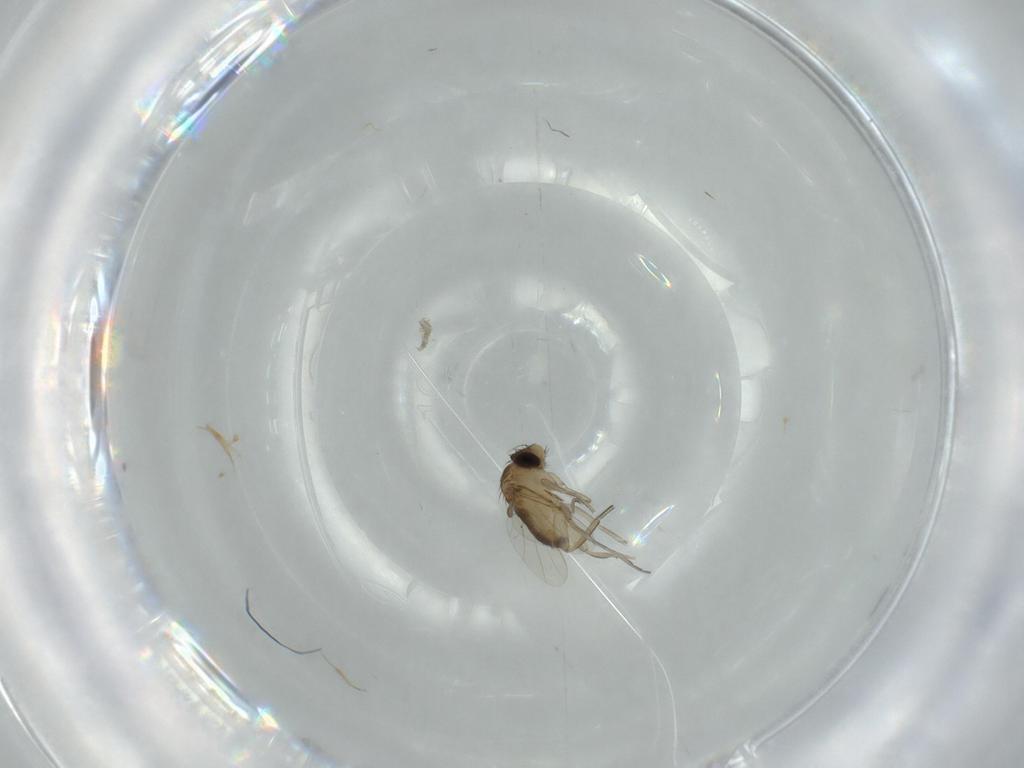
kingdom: Animalia
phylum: Arthropoda
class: Insecta
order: Diptera
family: Phoridae
